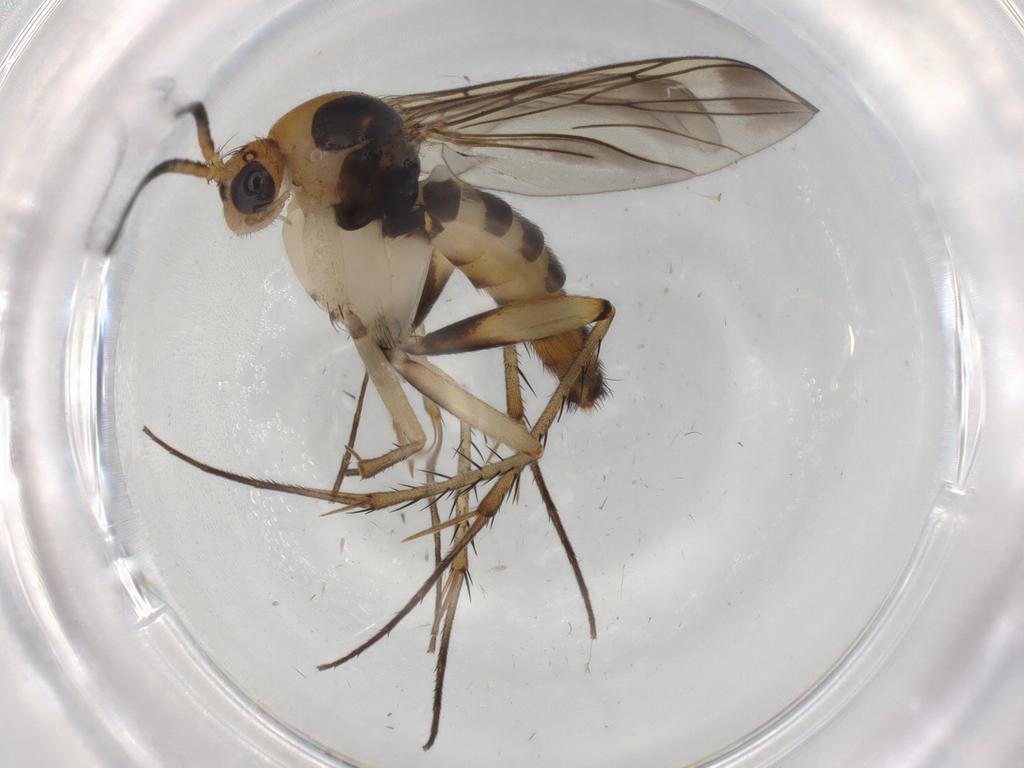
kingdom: Animalia
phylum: Arthropoda
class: Insecta
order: Diptera
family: Mycetophilidae
